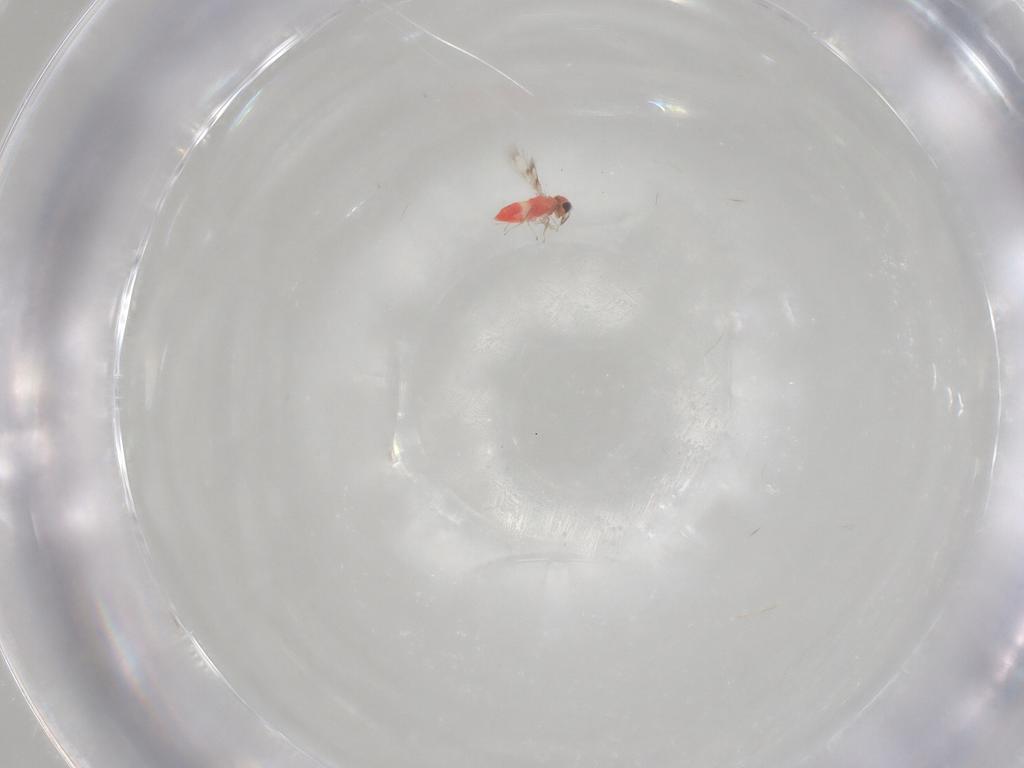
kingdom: Animalia
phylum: Arthropoda
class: Insecta
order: Hymenoptera
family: Trichogrammatidae
